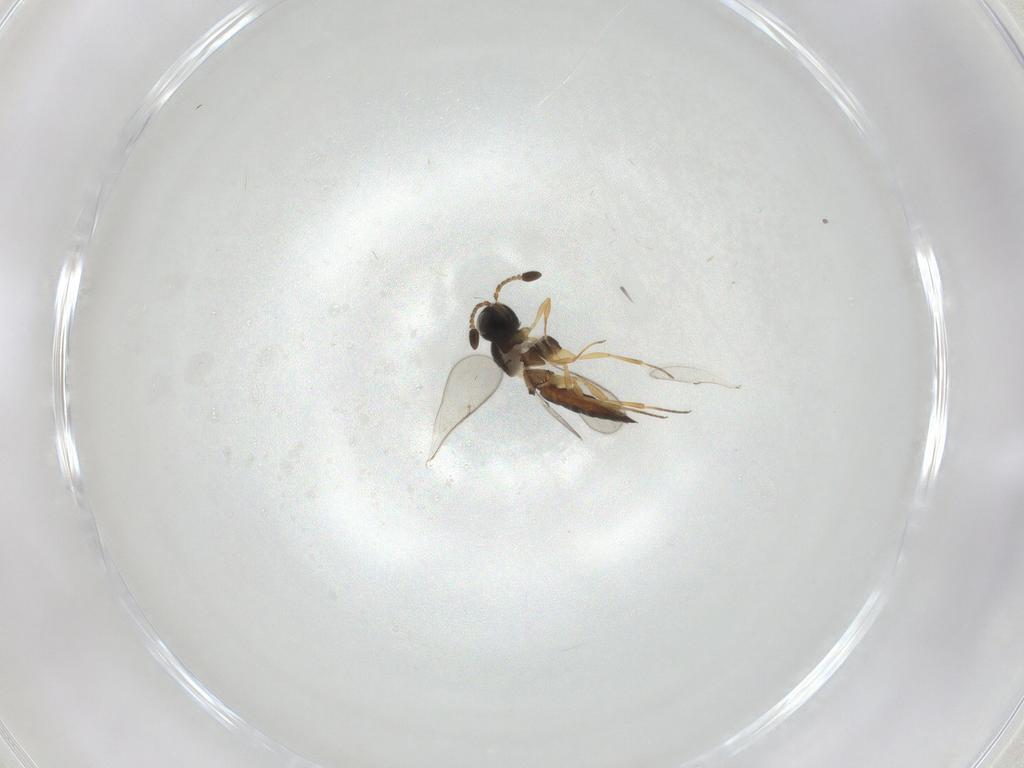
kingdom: Animalia
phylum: Arthropoda
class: Insecta
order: Hymenoptera
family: Scelionidae
